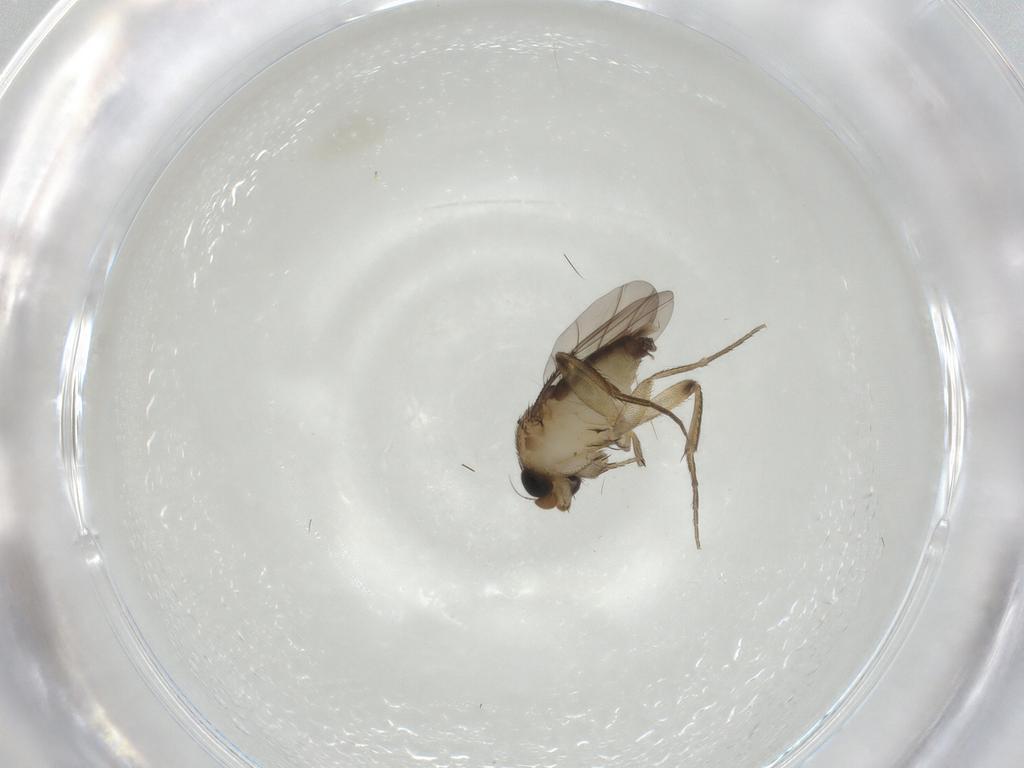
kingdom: Animalia
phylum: Arthropoda
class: Insecta
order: Diptera
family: Phoridae
